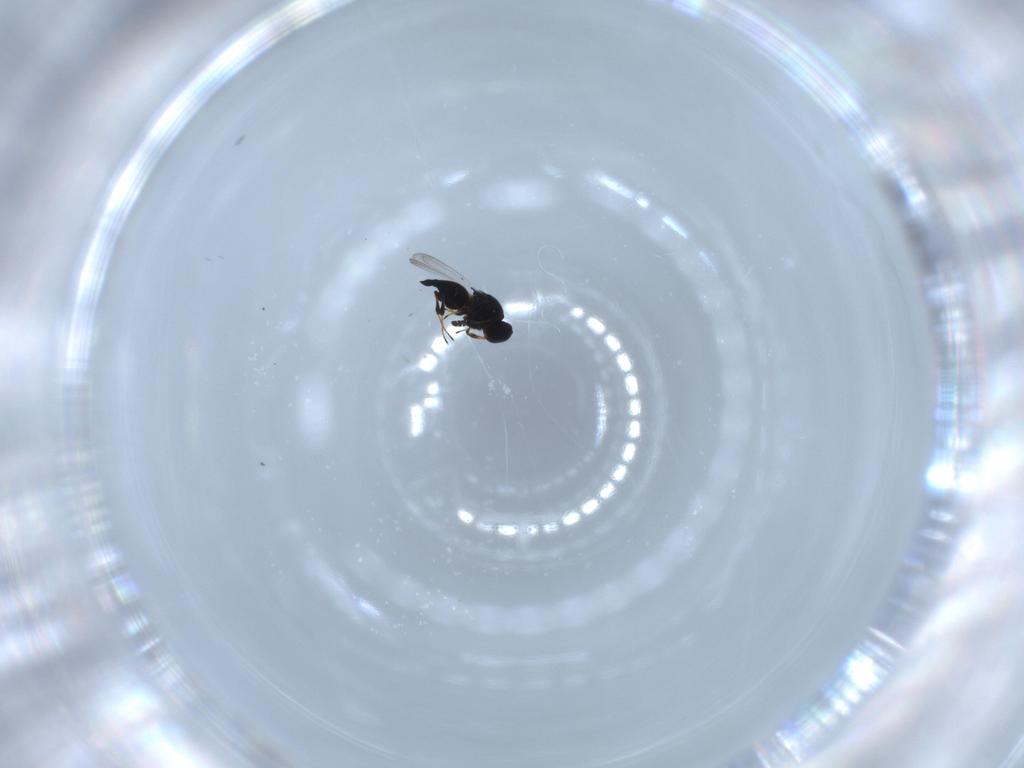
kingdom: Animalia
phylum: Arthropoda
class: Insecta
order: Hymenoptera
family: Platygastridae
